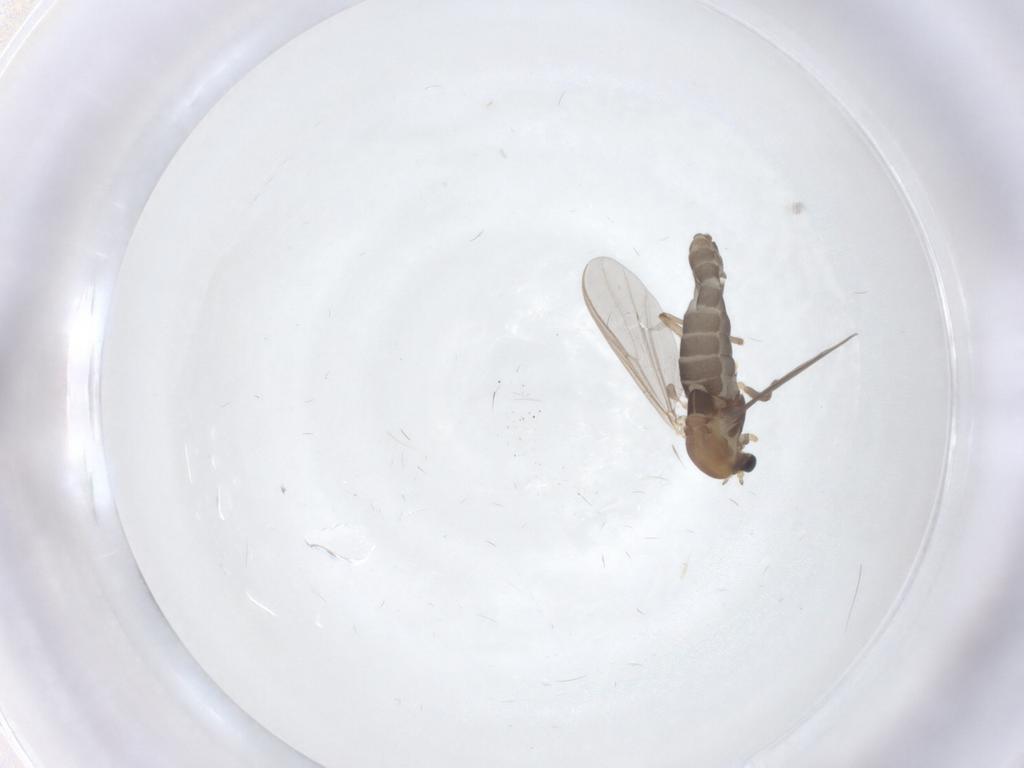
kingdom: Animalia
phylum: Arthropoda
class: Insecta
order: Diptera
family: Chironomidae
